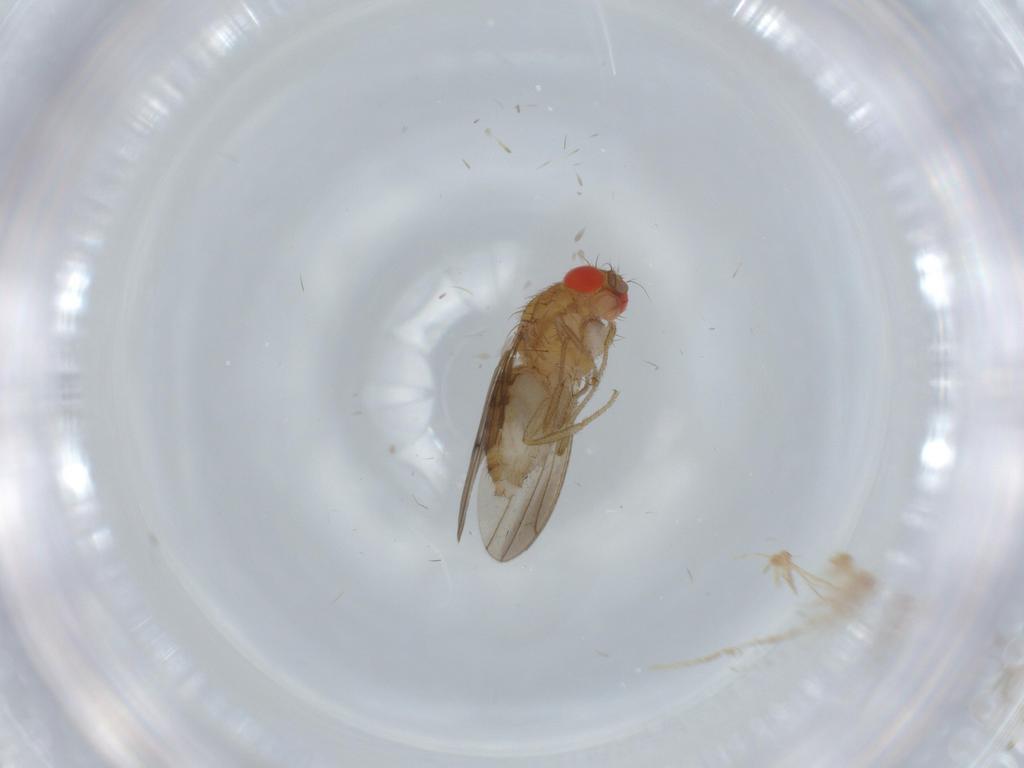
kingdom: Animalia
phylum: Arthropoda
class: Insecta
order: Diptera
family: Drosophilidae
